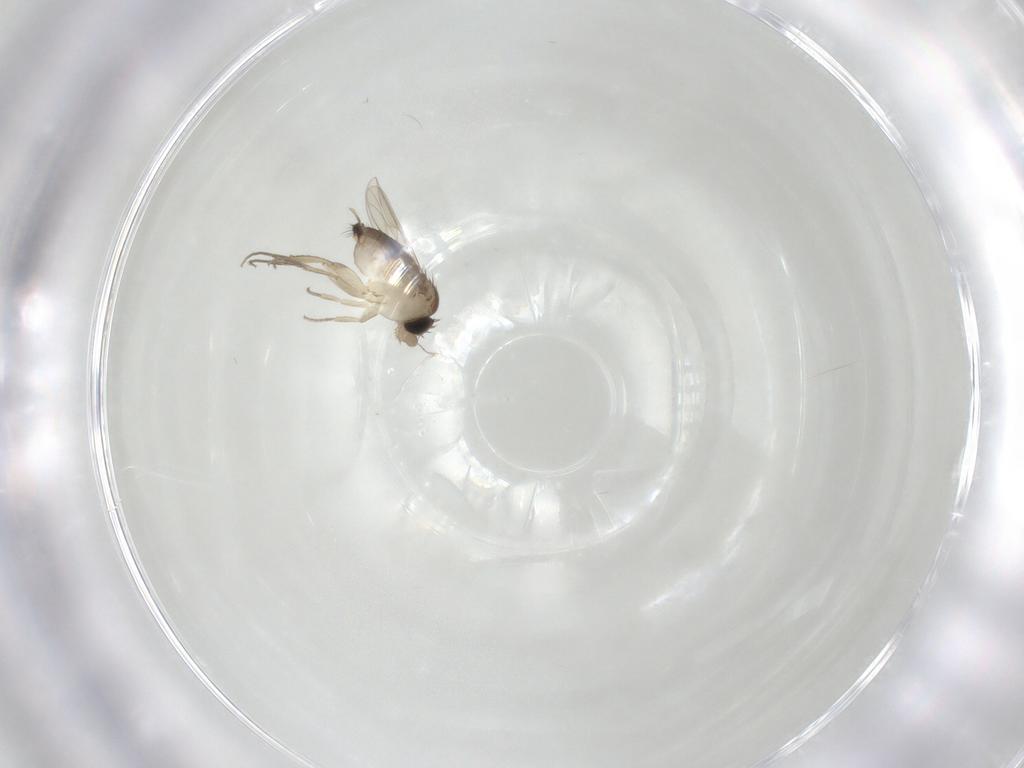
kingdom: Animalia
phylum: Arthropoda
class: Insecta
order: Diptera
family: Phoridae
